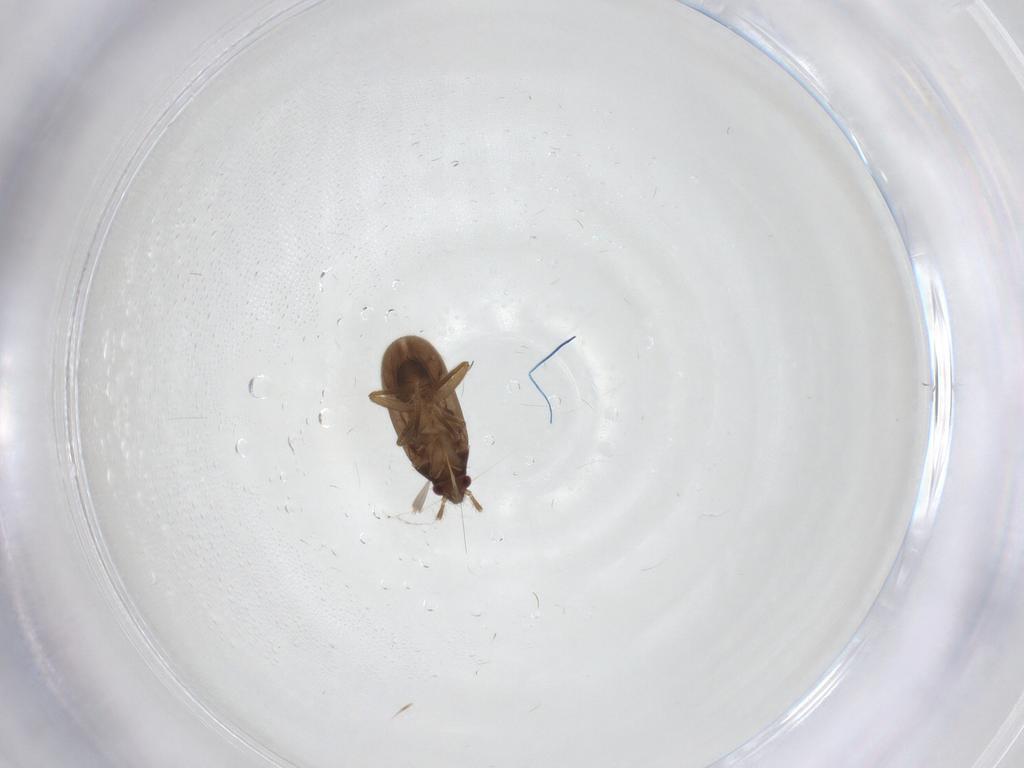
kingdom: Animalia
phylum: Arthropoda
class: Insecta
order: Hemiptera
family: Ceratocombidae
